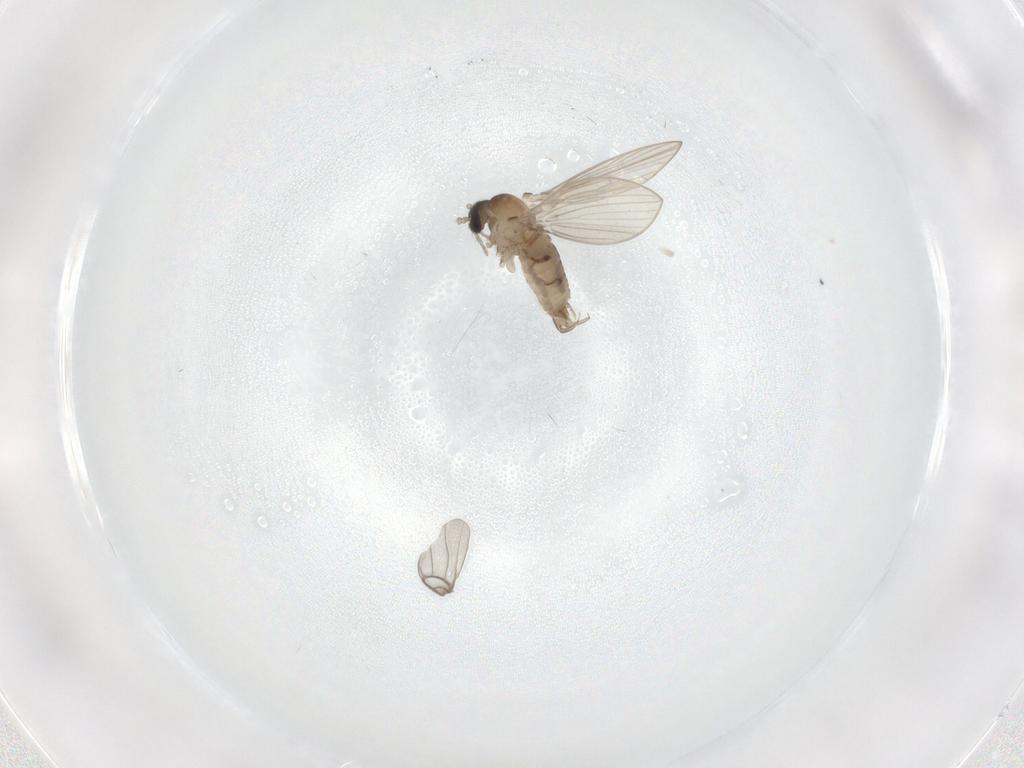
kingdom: Animalia
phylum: Arthropoda
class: Insecta
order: Diptera
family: Psychodidae
